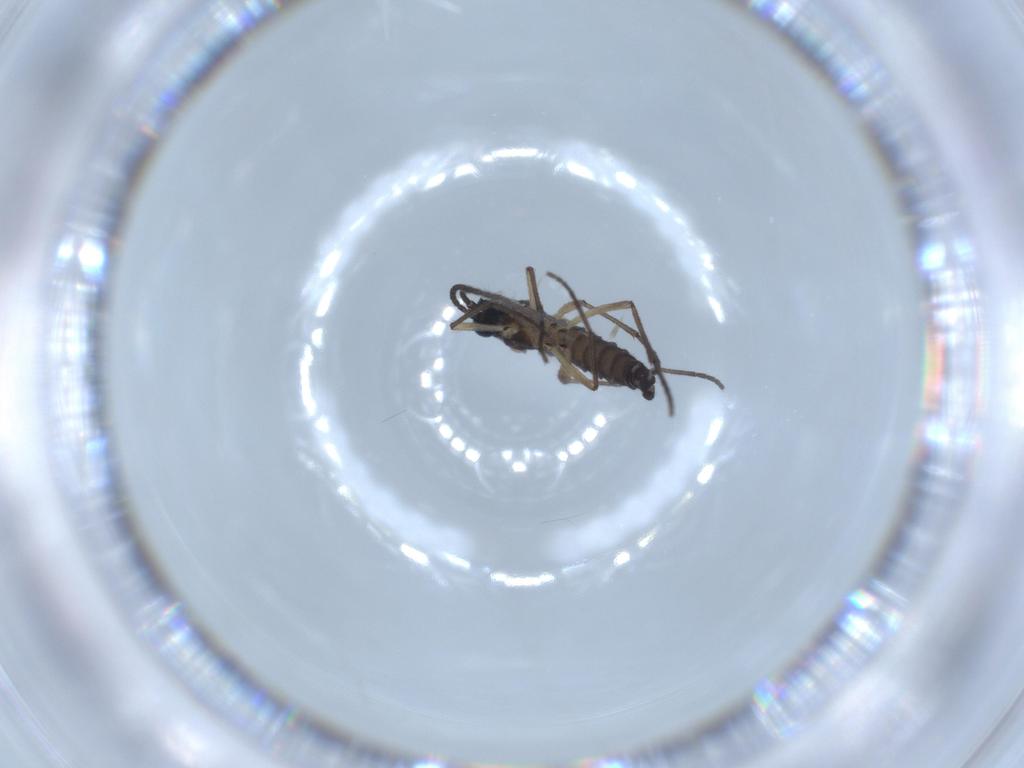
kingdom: Animalia
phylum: Arthropoda
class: Insecta
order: Diptera
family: Sciaridae
